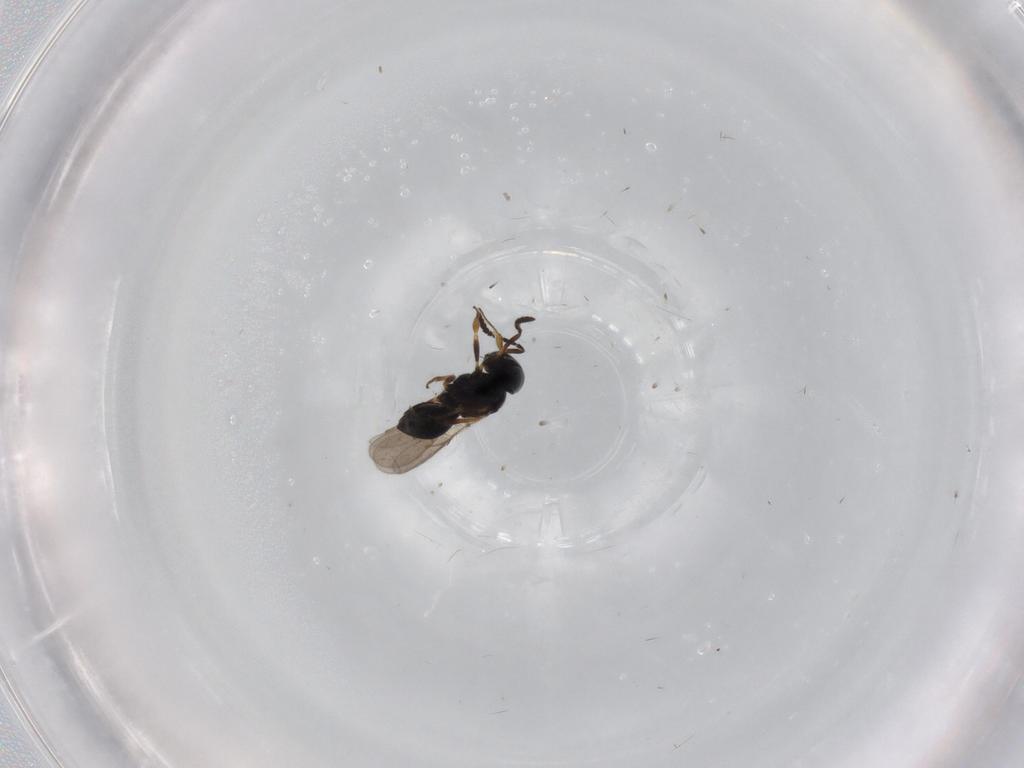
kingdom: Animalia
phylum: Arthropoda
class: Insecta
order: Hymenoptera
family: Scelionidae
